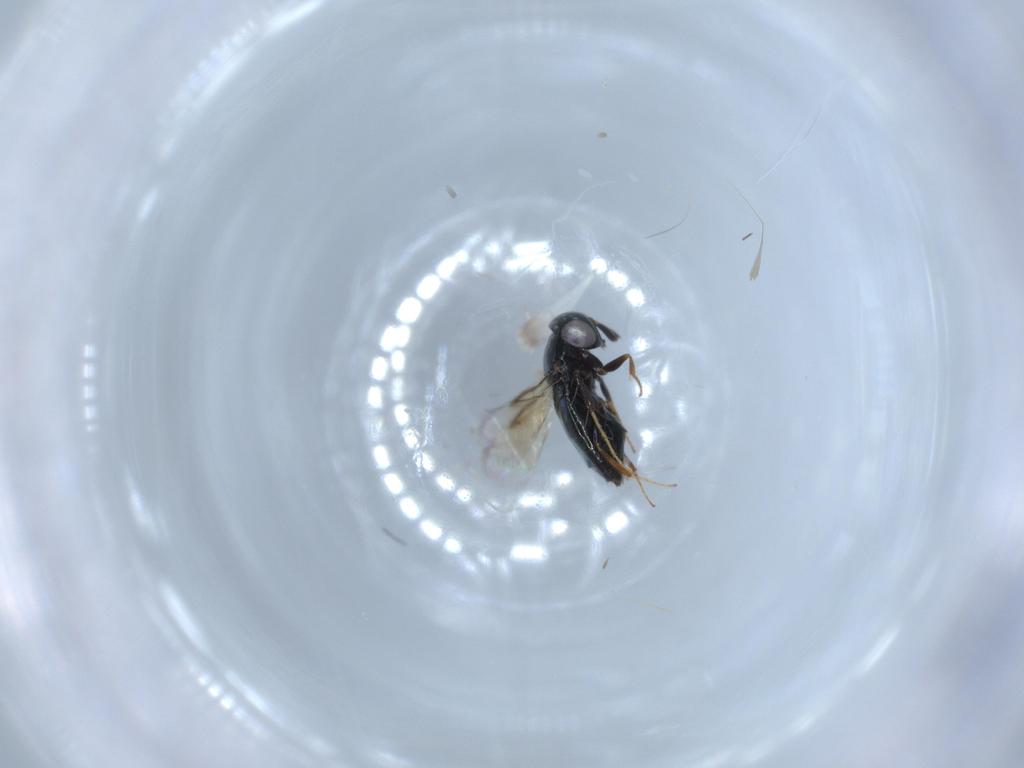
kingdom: Animalia
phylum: Arthropoda
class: Insecta
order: Hymenoptera
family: Signiphoridae
